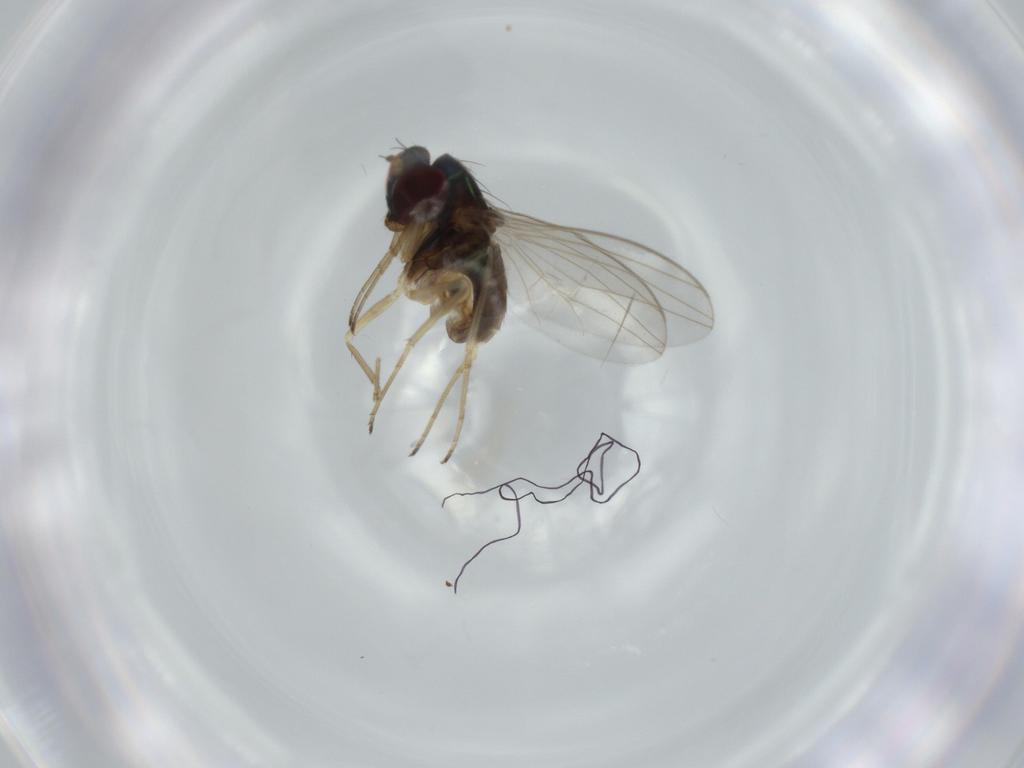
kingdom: Animalia
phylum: Arthropoda
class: Insecta
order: Diptera
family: Dolichopodidae
